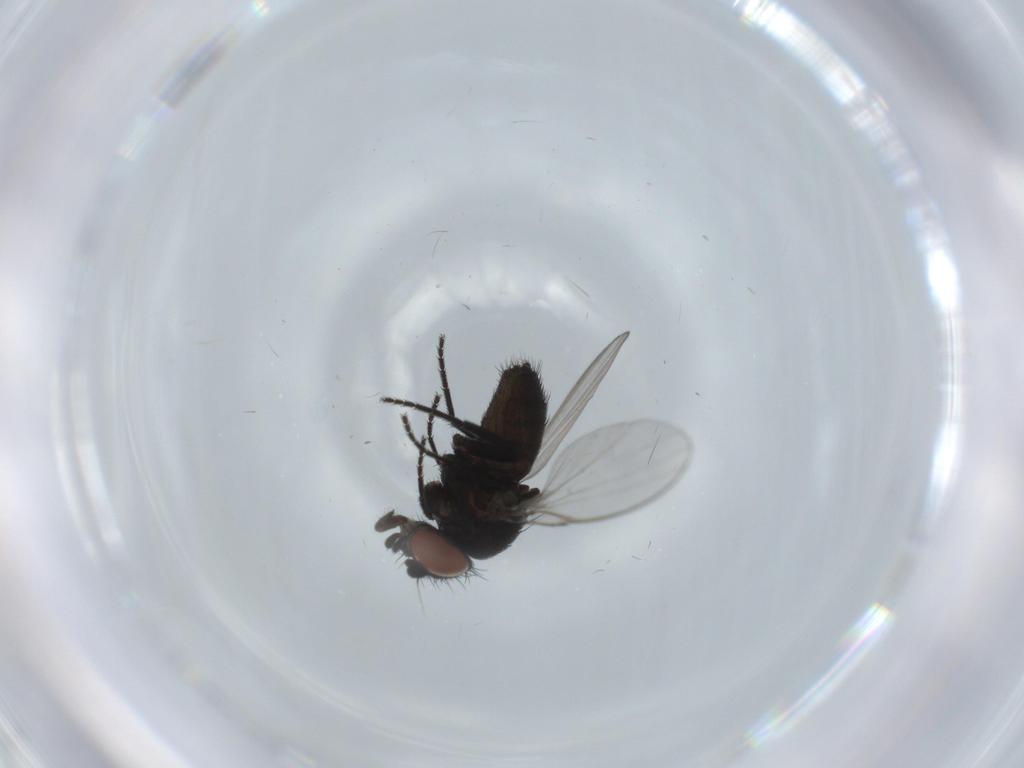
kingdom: Animalia
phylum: Arthropoda
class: Insecta
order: Diptera
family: Milichiidae
